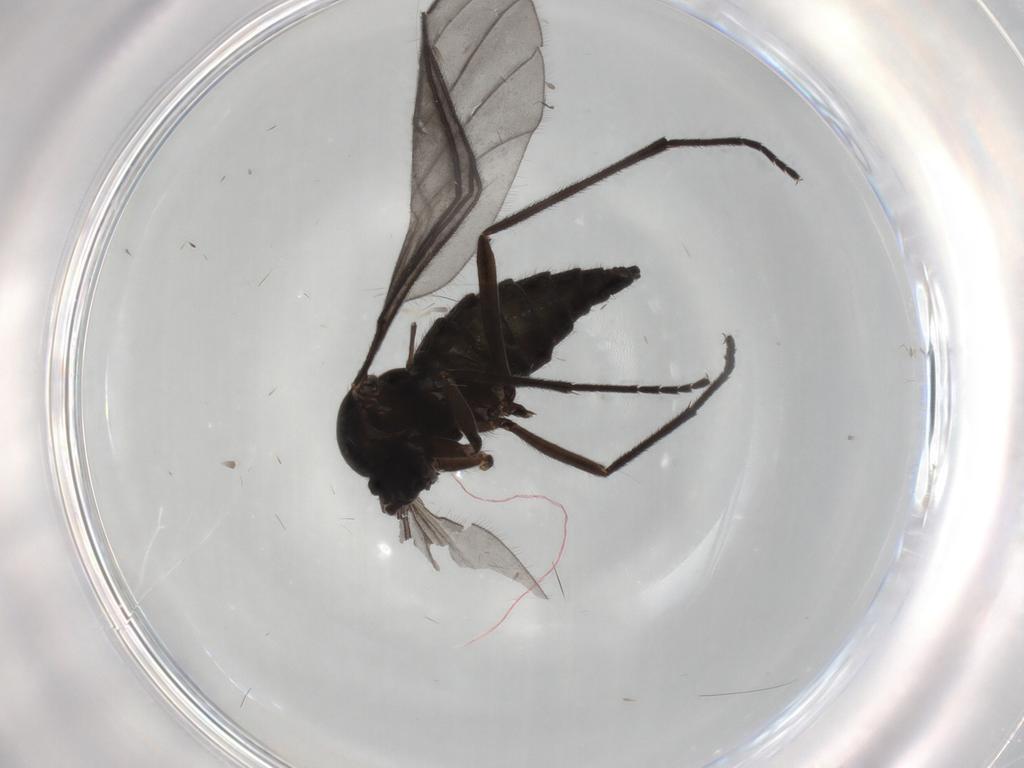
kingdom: Animalia
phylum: Arthropoda
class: Insecta
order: Diptera
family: Sciaridae
